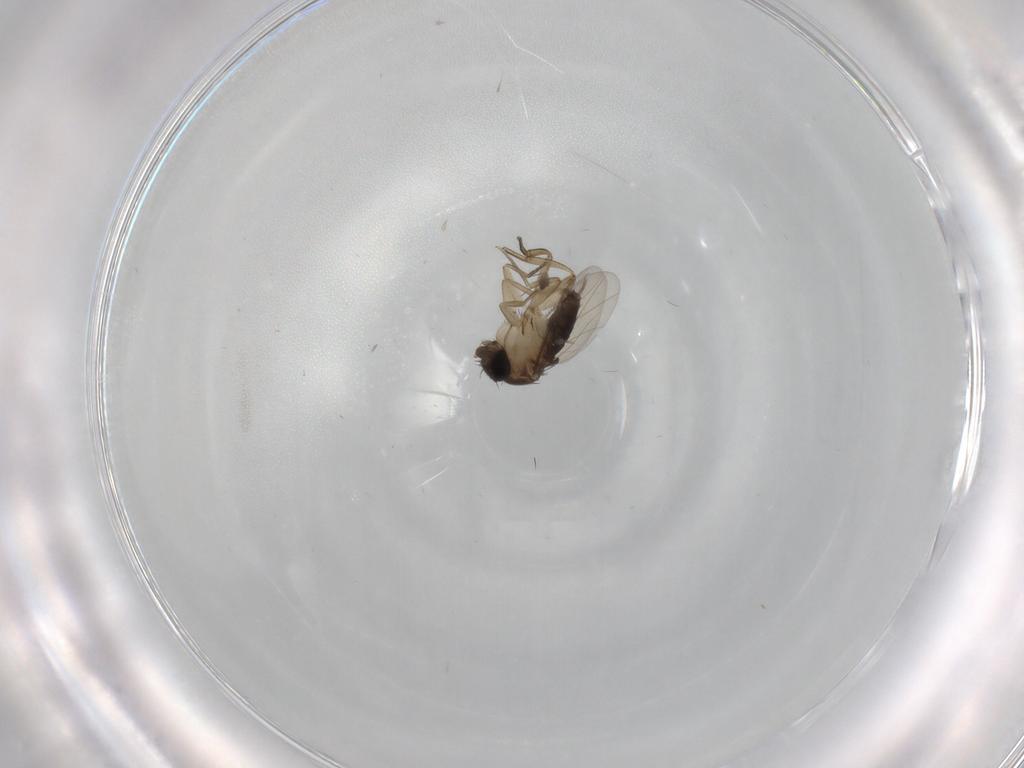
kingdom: Animalia
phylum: Arthropoda
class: Insecta
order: Diptera
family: Phoridae
